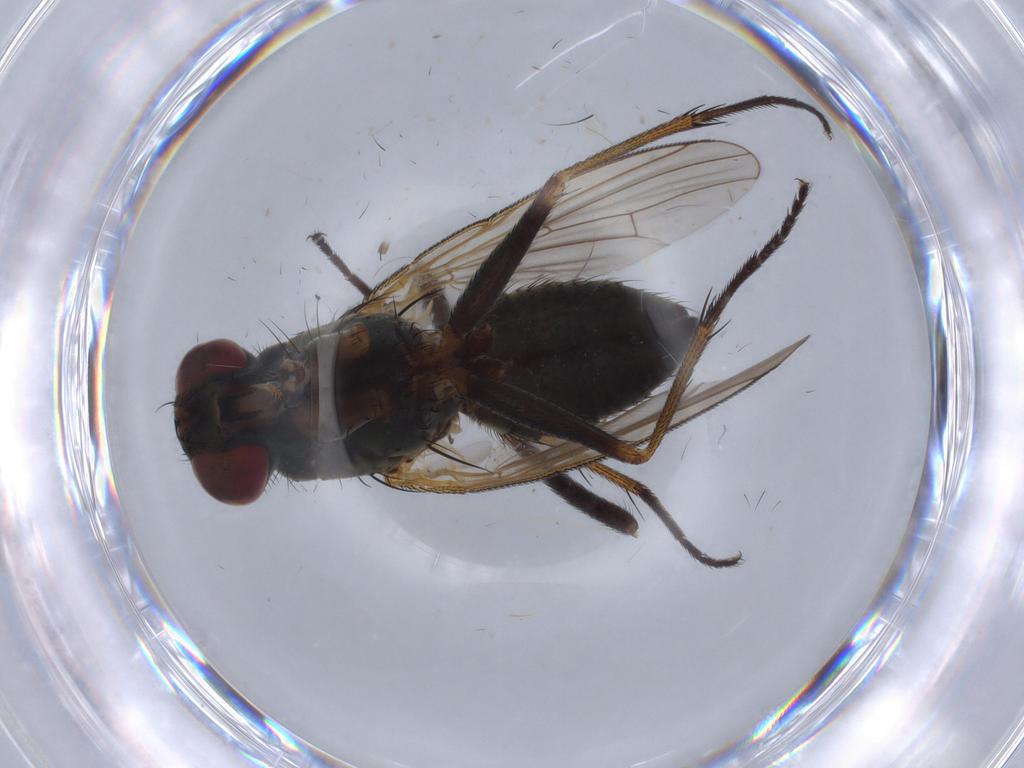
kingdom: Animalia
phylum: Arthropoda
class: Insecta
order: Diptera
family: Muscidae
